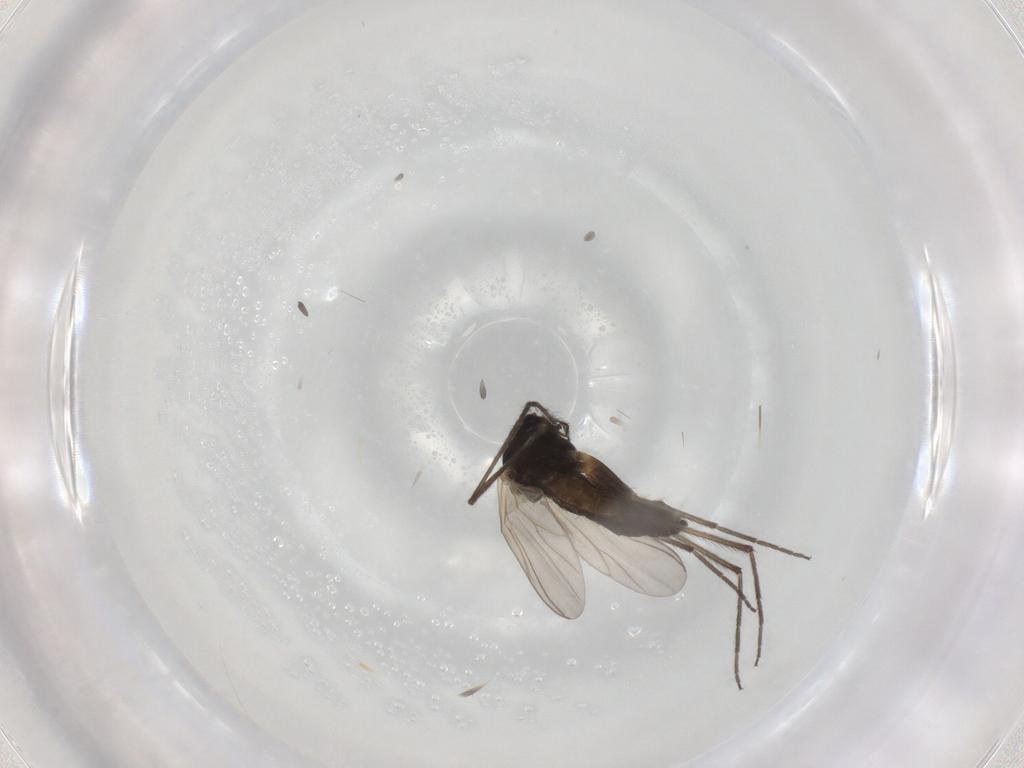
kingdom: Animalia
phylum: Arthropoda
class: Insecta
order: Diptera
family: Chironomidae
